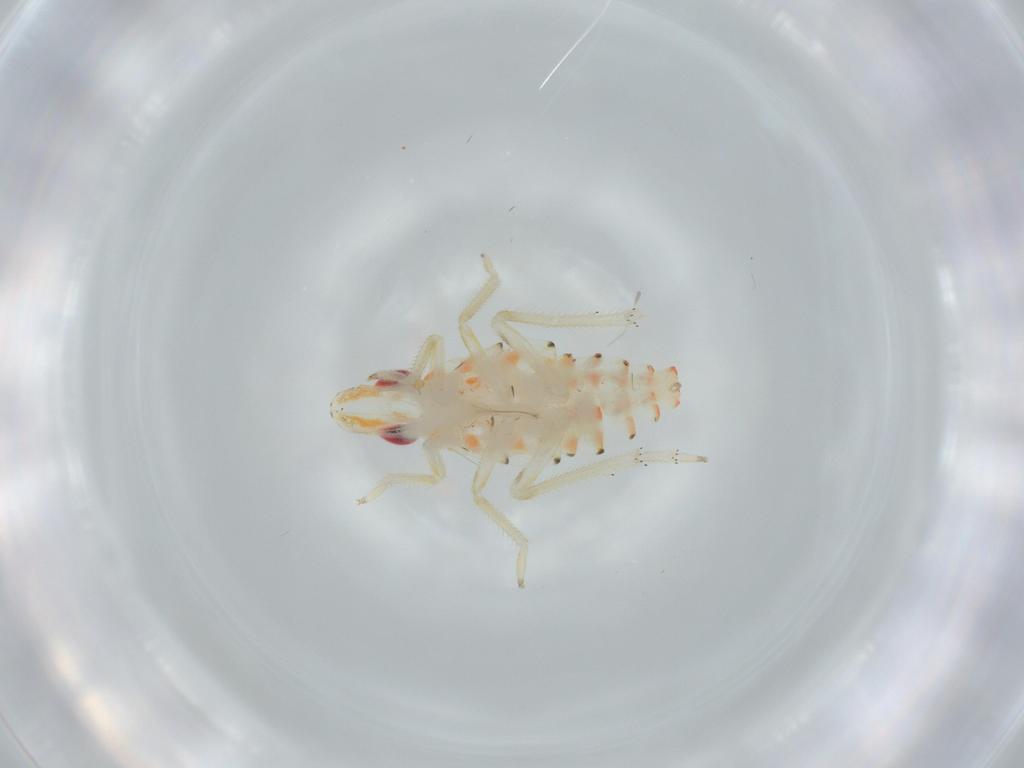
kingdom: Animalia
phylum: Arthropoda
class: Insecta
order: Hemiptera
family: Tropiduchidae
